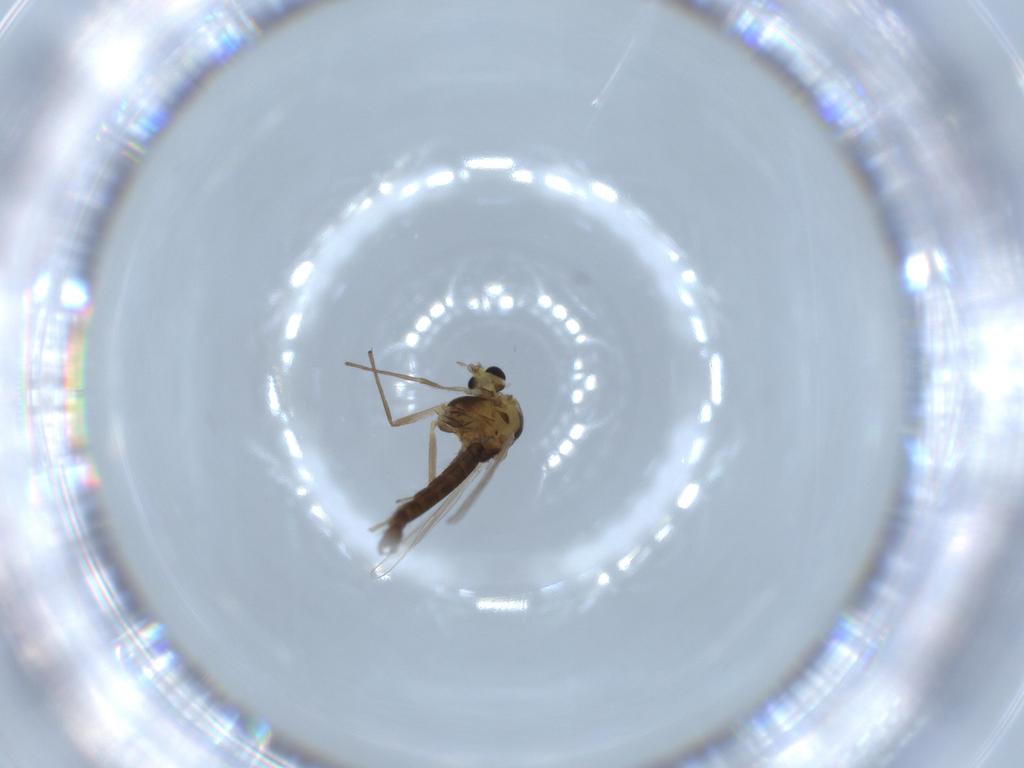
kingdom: Animalia
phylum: Arthropoda
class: Insecta
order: Diptera
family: Chironomidae
